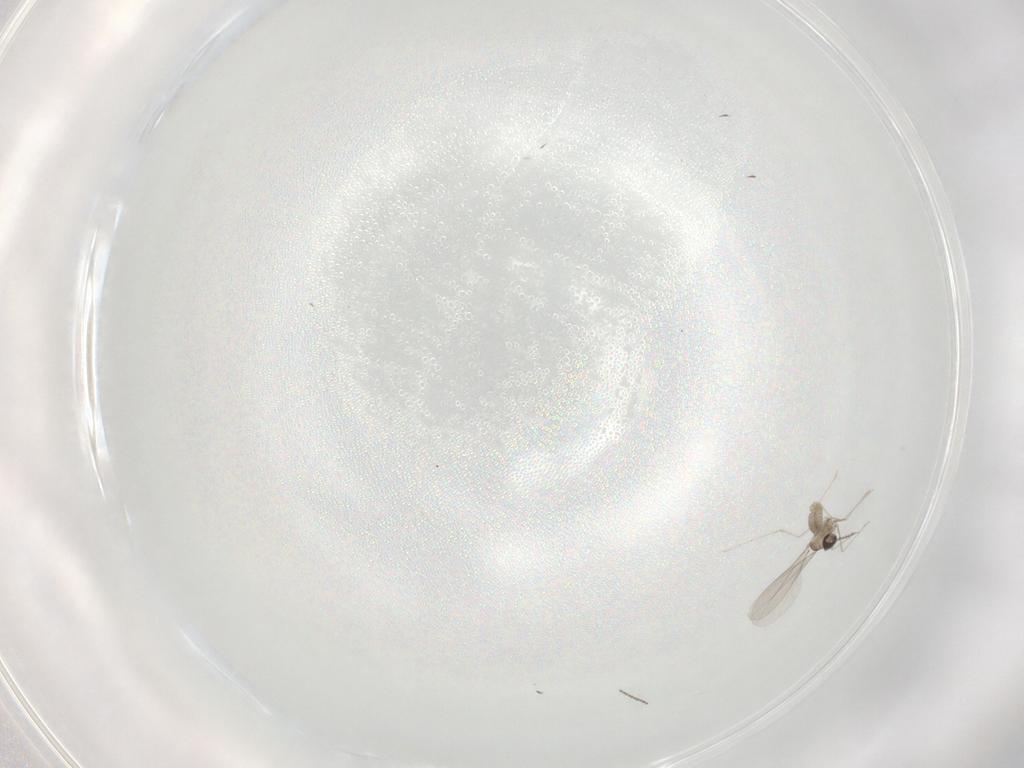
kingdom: Animalia
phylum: Arthropoda
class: Insecta
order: Diptera
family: Cecidomyiidae
